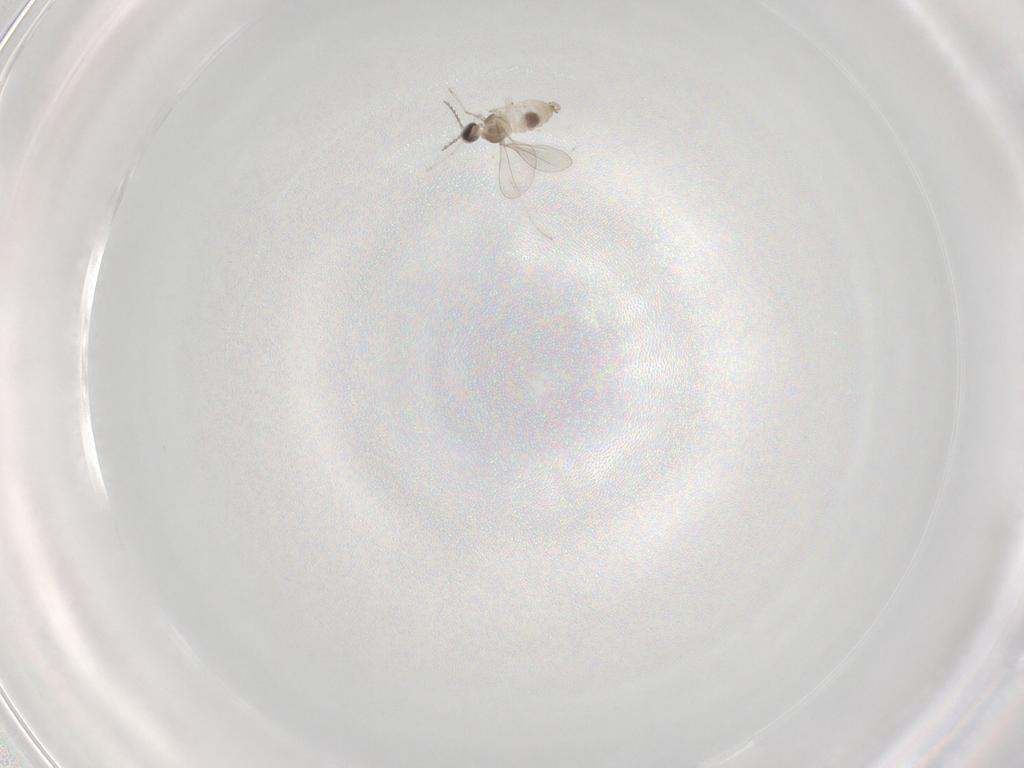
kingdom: Animalia
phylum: Arthropoda
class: Insecta
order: Diptera
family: Cecidomyiidae
